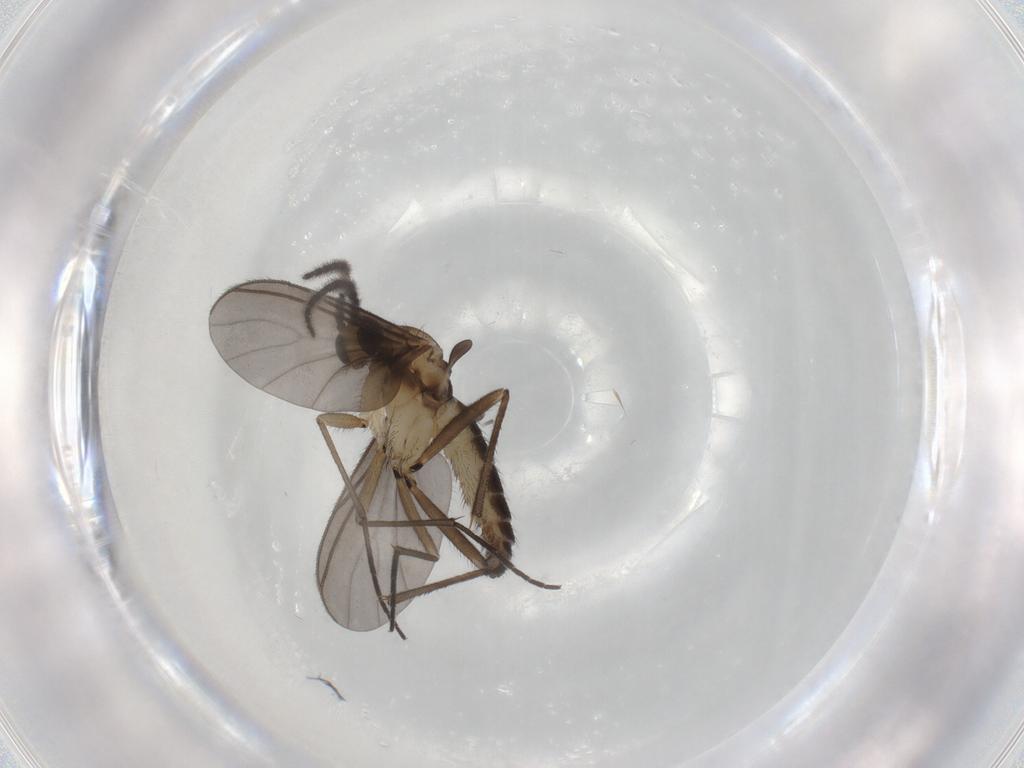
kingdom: Animalia
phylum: Arthropoda
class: Insecta
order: Diptera
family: Sciaridae
